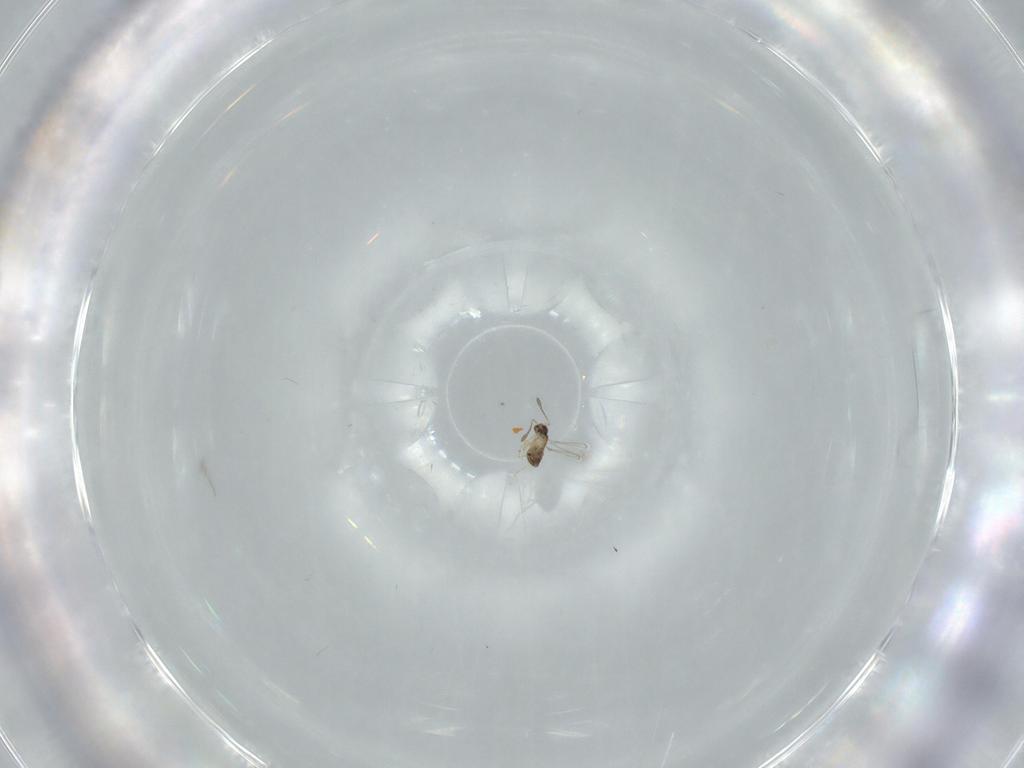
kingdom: Animalia
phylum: Arthropoda
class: Insecta
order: Hymenoptera
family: Mymaridae
